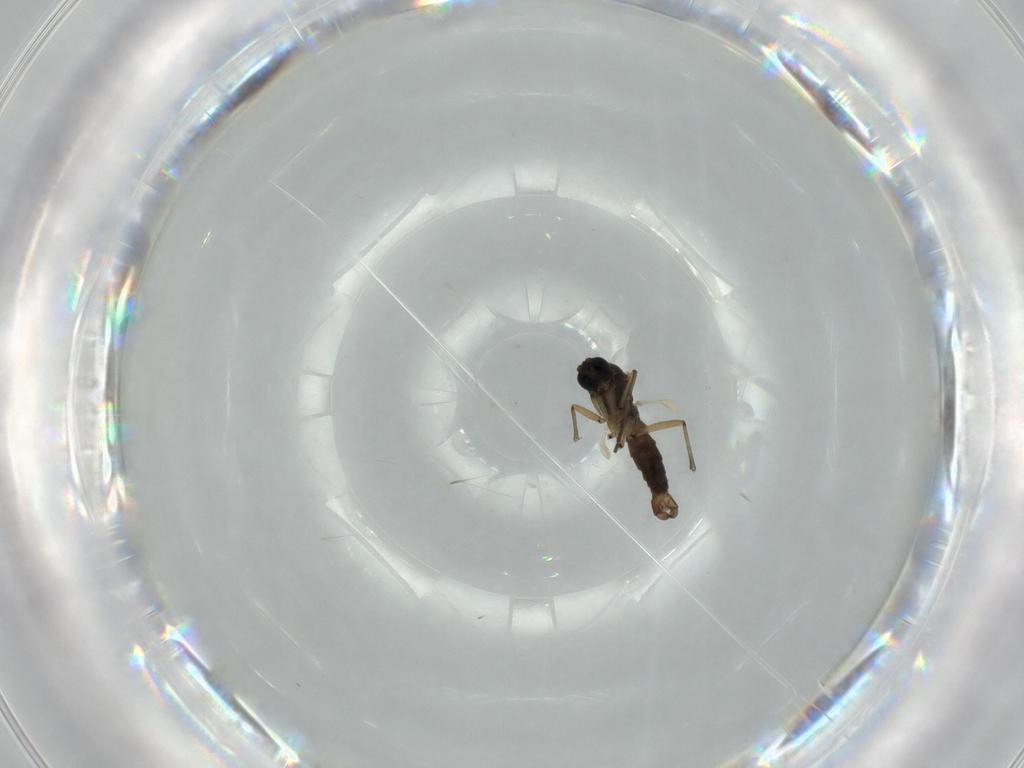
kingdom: Animalia
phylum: Arthropoda
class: Insecta
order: Diptera
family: Sciaridae
